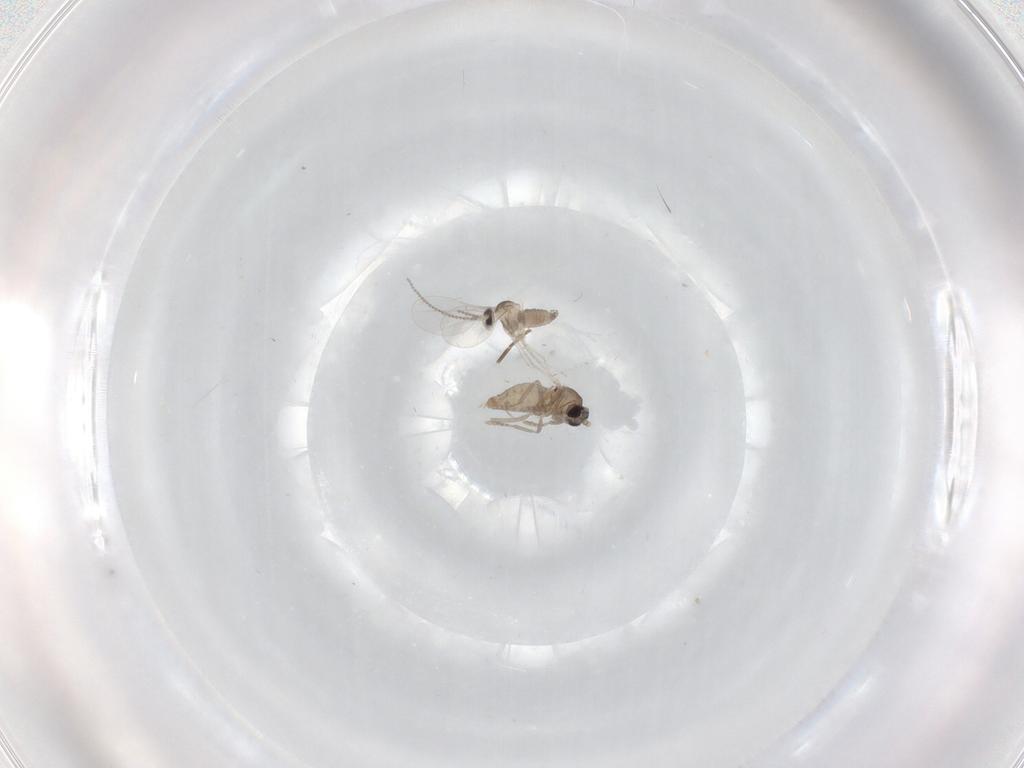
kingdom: Animalia
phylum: Arthropoda
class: Insecta
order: Diptera
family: Cecidomyiidae
